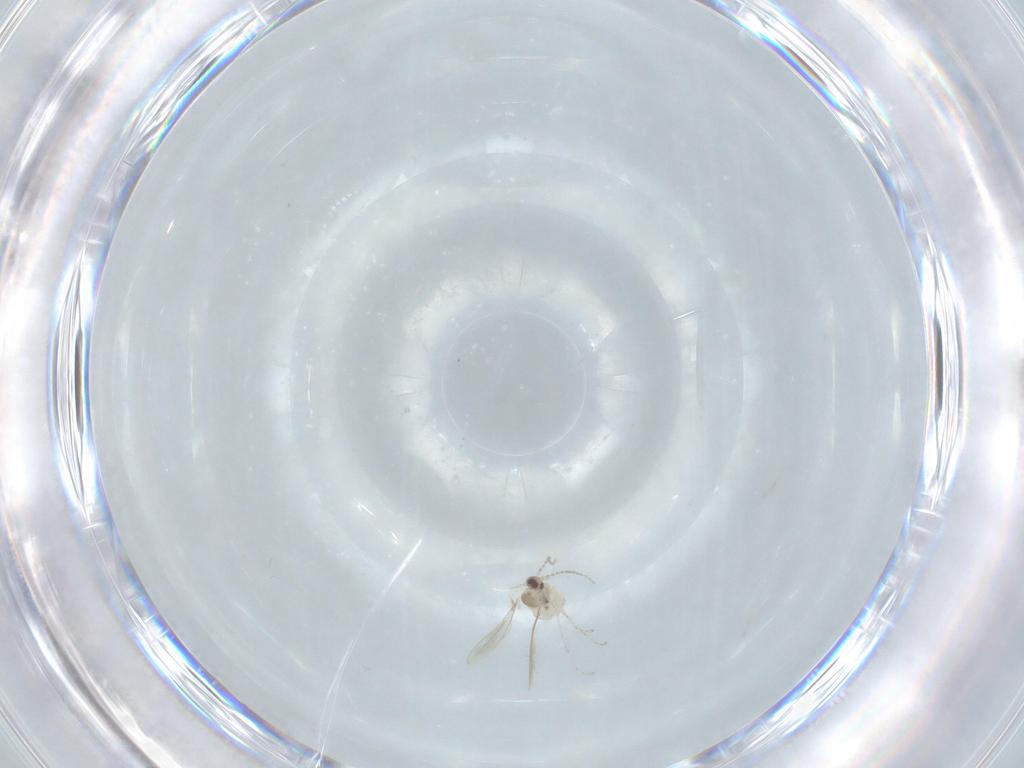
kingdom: Animalia
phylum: Arthropoda
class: Insecta
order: Diptera
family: Cecidomyiidae
